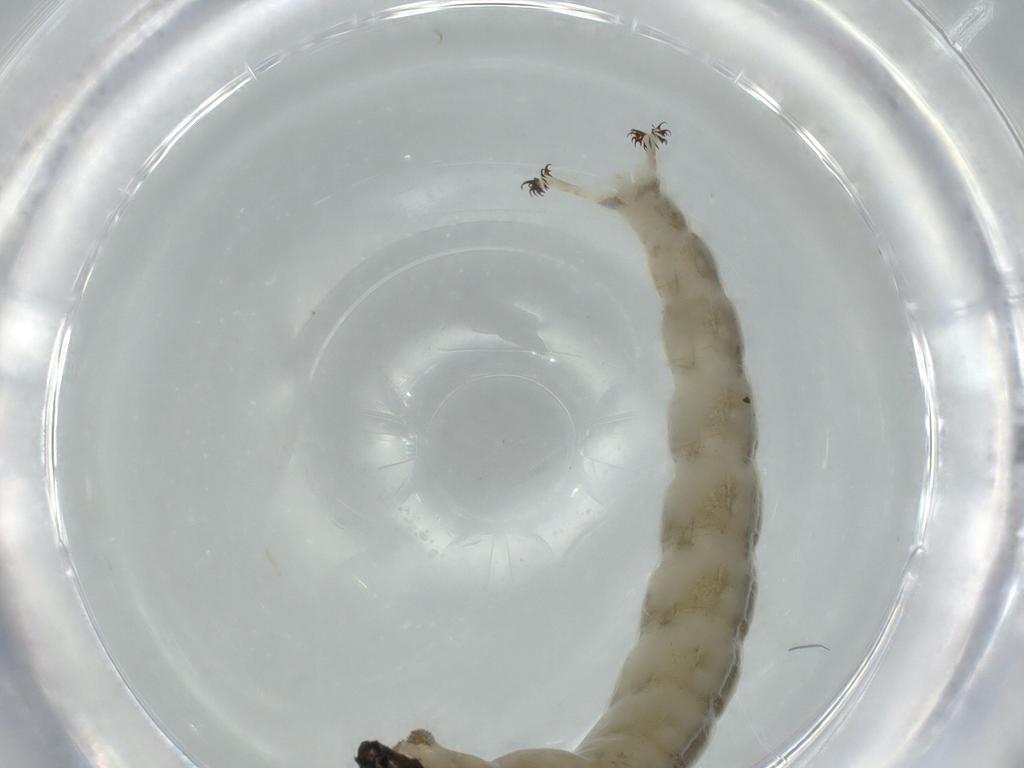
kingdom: Animalia
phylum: Arthropoda
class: Insecta
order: Diptera
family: Chironomidae
